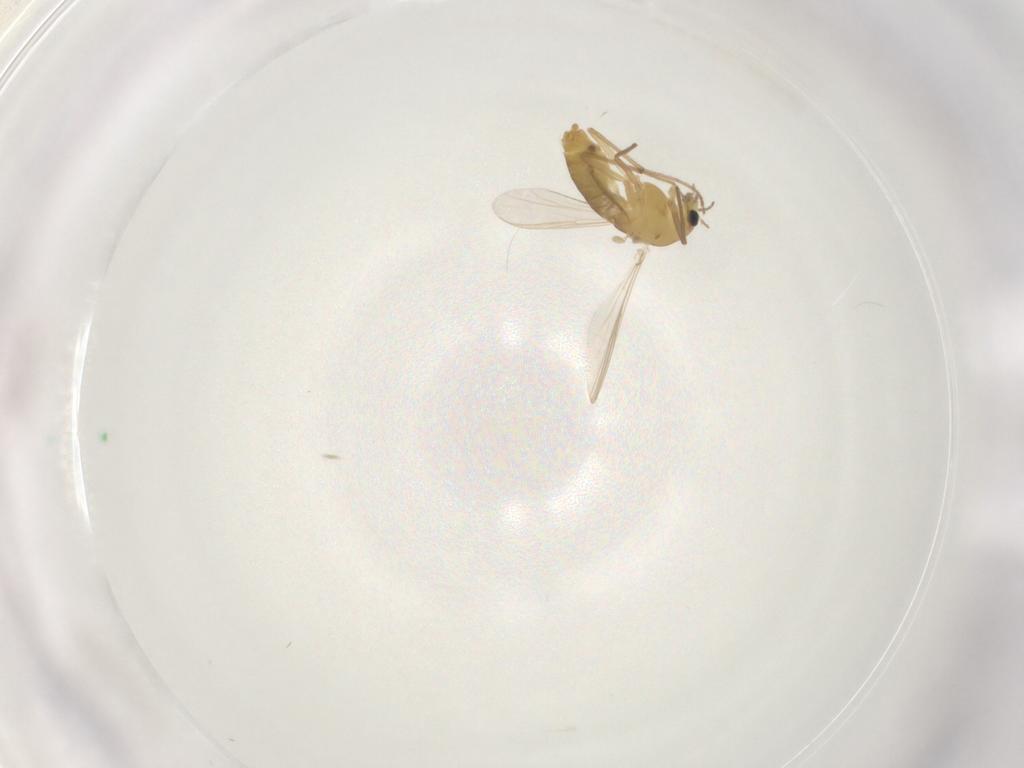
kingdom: Animalia
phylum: Arthropoda
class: Insecta
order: Diptera
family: Chironomidae
